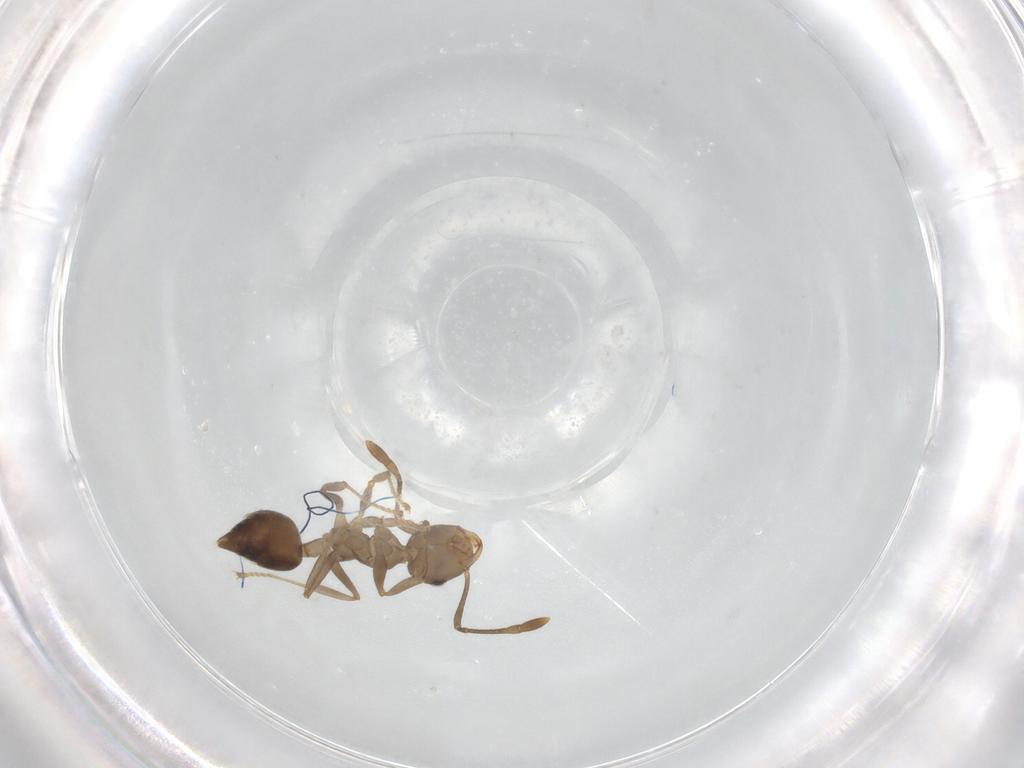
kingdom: Animalia
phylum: Arthropoda
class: Insecta
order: Hymenoptera
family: Formicidae
